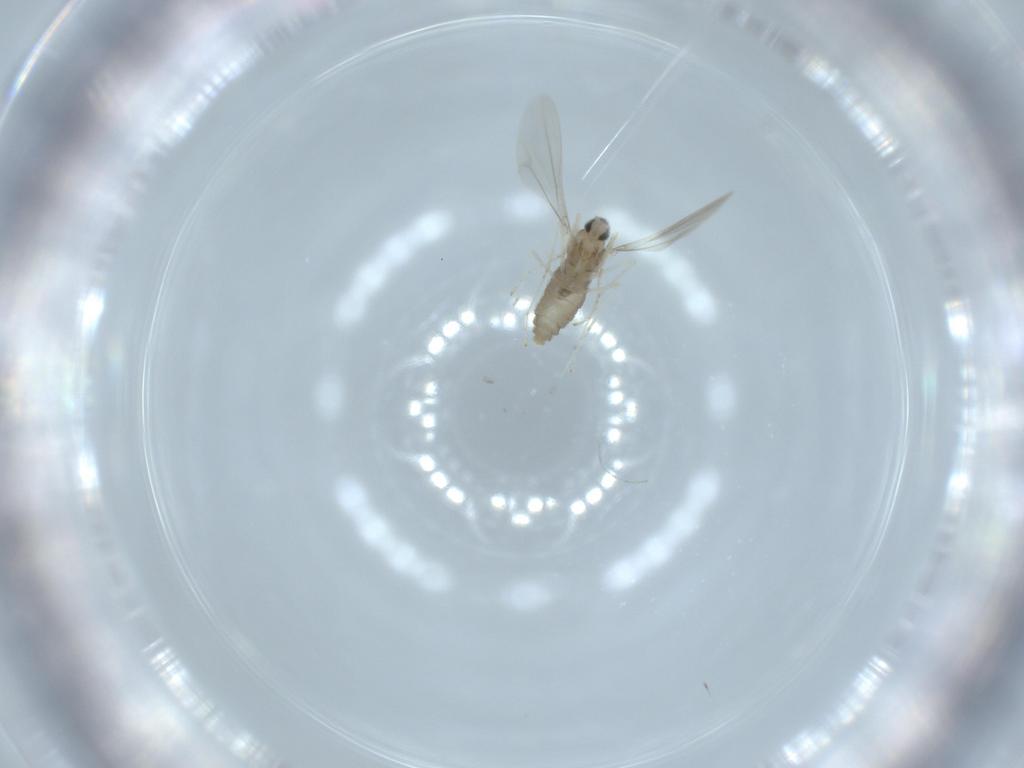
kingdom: Animalia
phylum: Arthropoda
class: Insecta
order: Diptera
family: Cecidomyiidae
